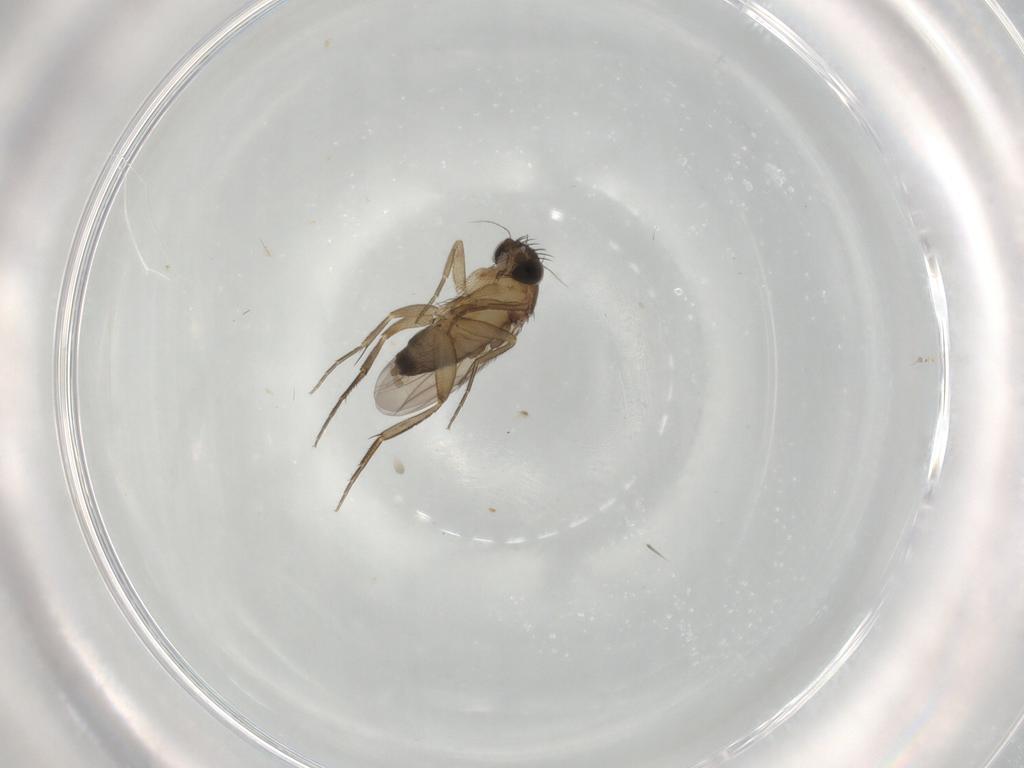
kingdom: Animalia
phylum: Arthropoda
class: Insecta
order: Diptera
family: Phoridae
